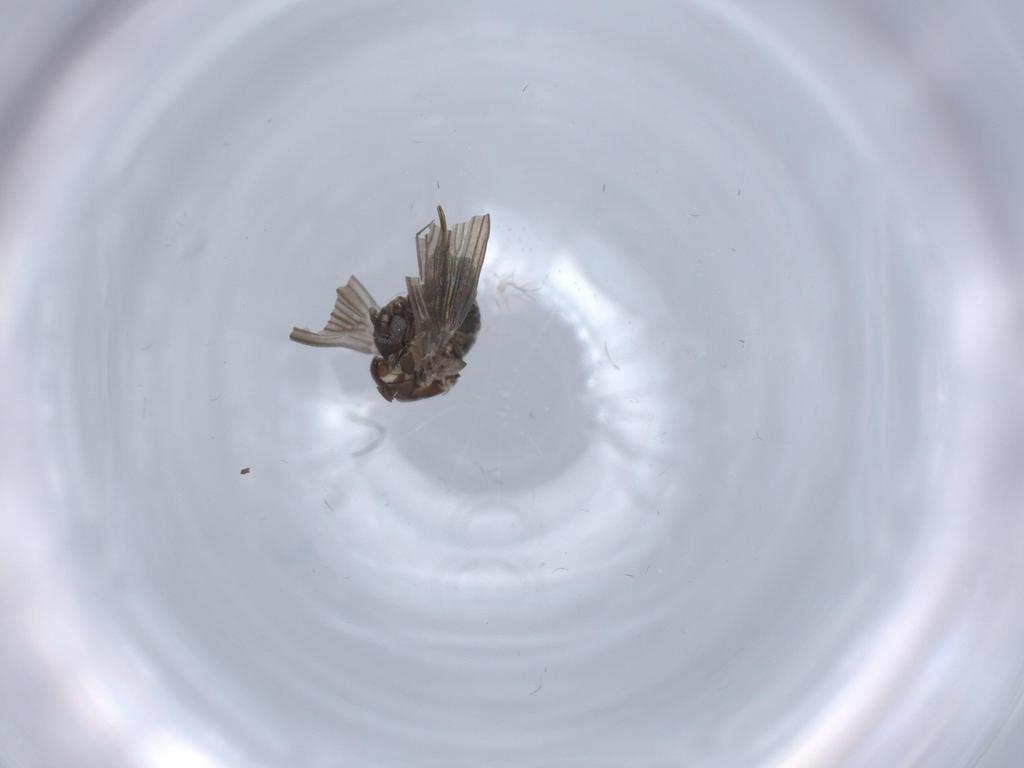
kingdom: Animalia
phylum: Arthropoda
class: Insecta
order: Diptera
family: Psychodidae
